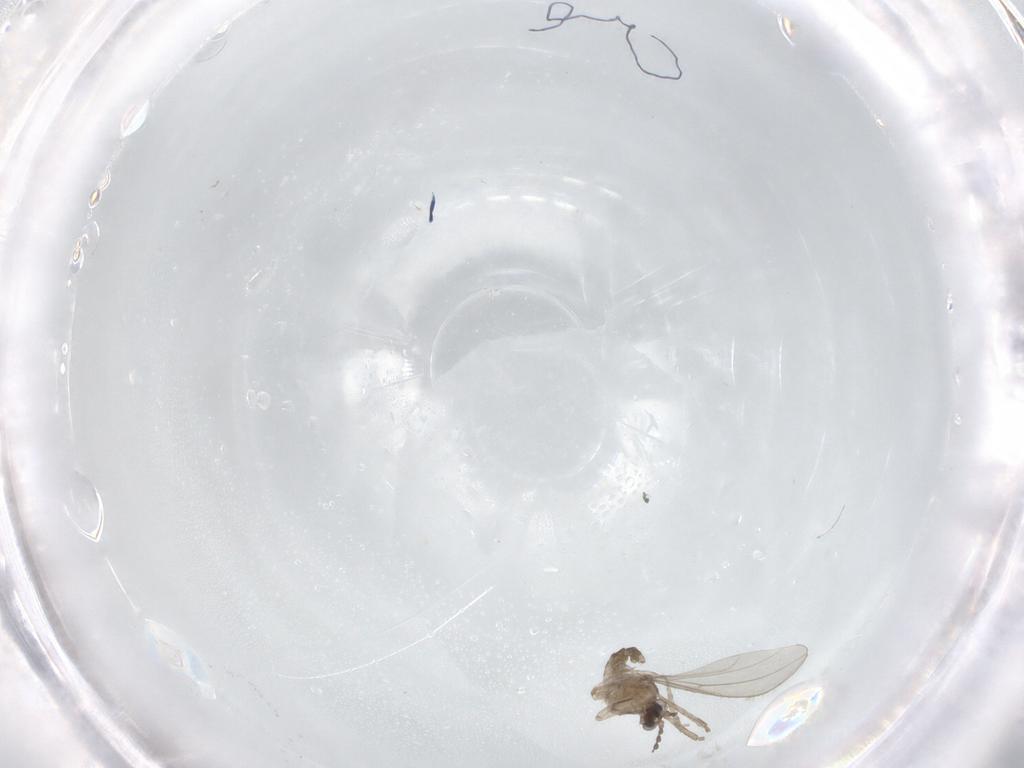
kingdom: Animalia
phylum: Arthropoda
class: Insecta
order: Diptera
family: Cecidomyiidae
